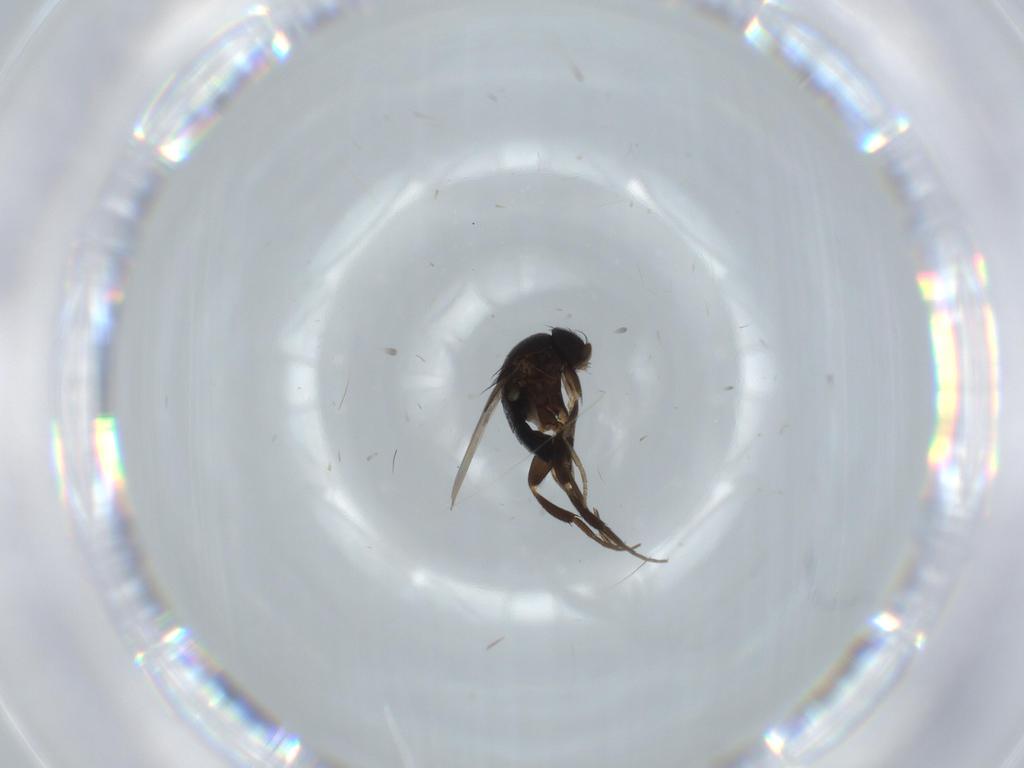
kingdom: Animalia
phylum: Arthropoda
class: Insecta
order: Diptera
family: Phoridae
